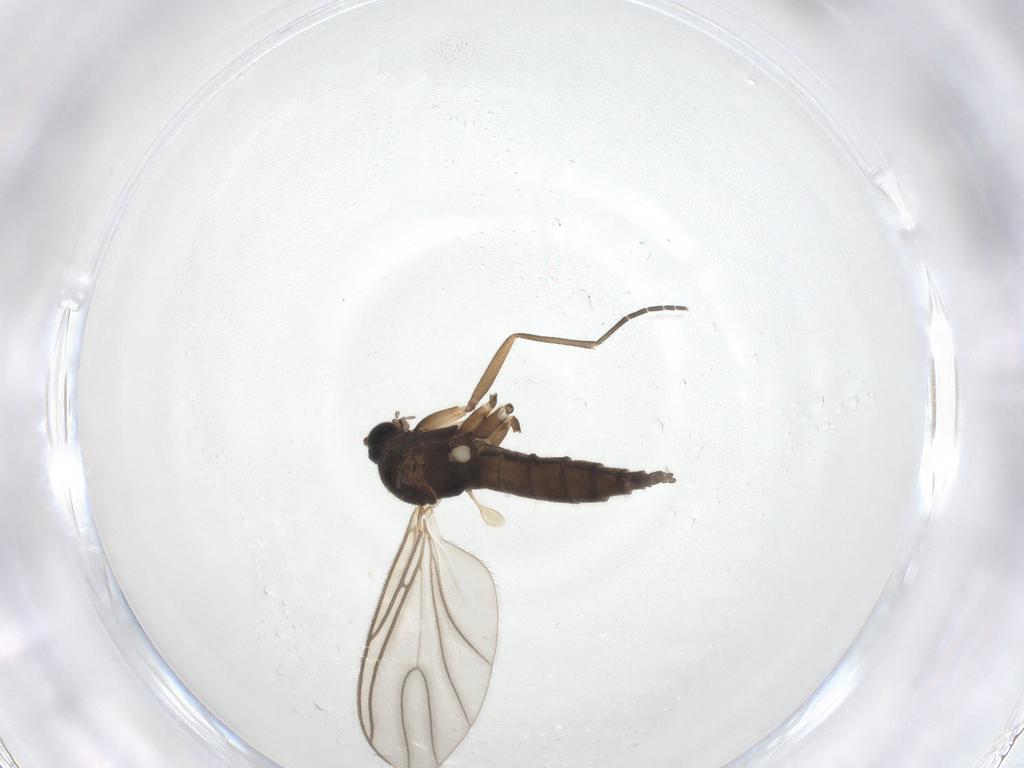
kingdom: Animalia
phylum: Arthropoda
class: Insecta
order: Diptera
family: Sciaridae
